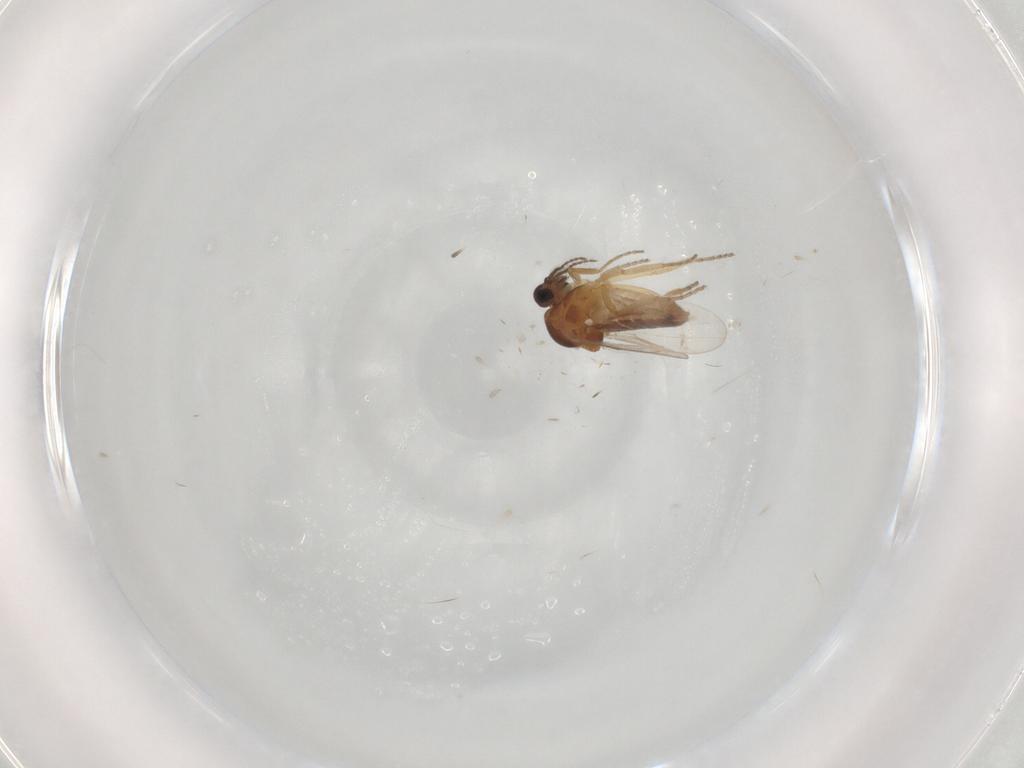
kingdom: Animalia
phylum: Arthropoda
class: Insecta
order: Diptera
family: Ceratopogonidae
